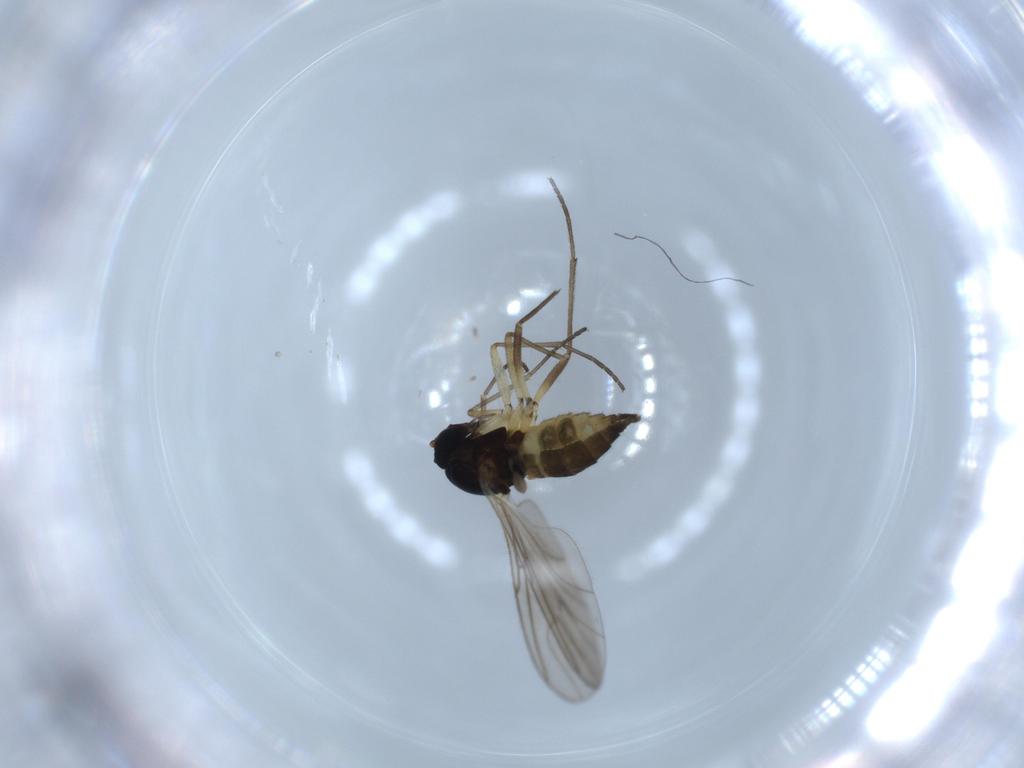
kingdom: Animalia
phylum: Arthropoda
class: Insecta
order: Diptera
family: Sciaridae
